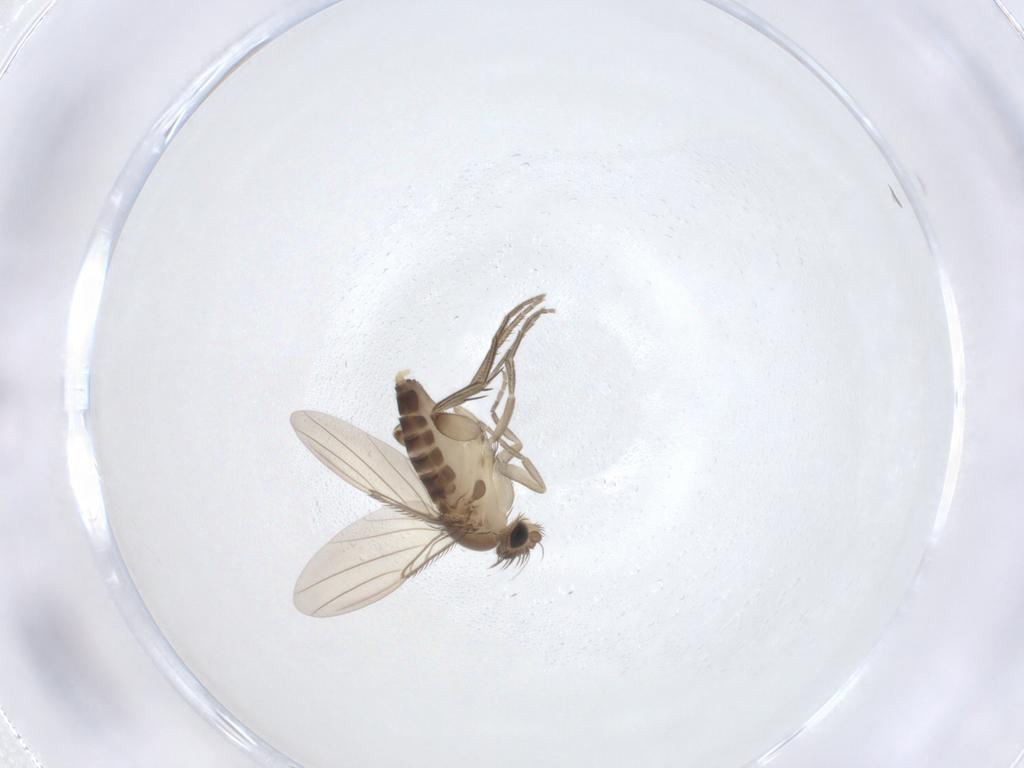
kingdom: Animalia
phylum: Arthropoda
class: Insecta
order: Diptera
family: Phoridae
